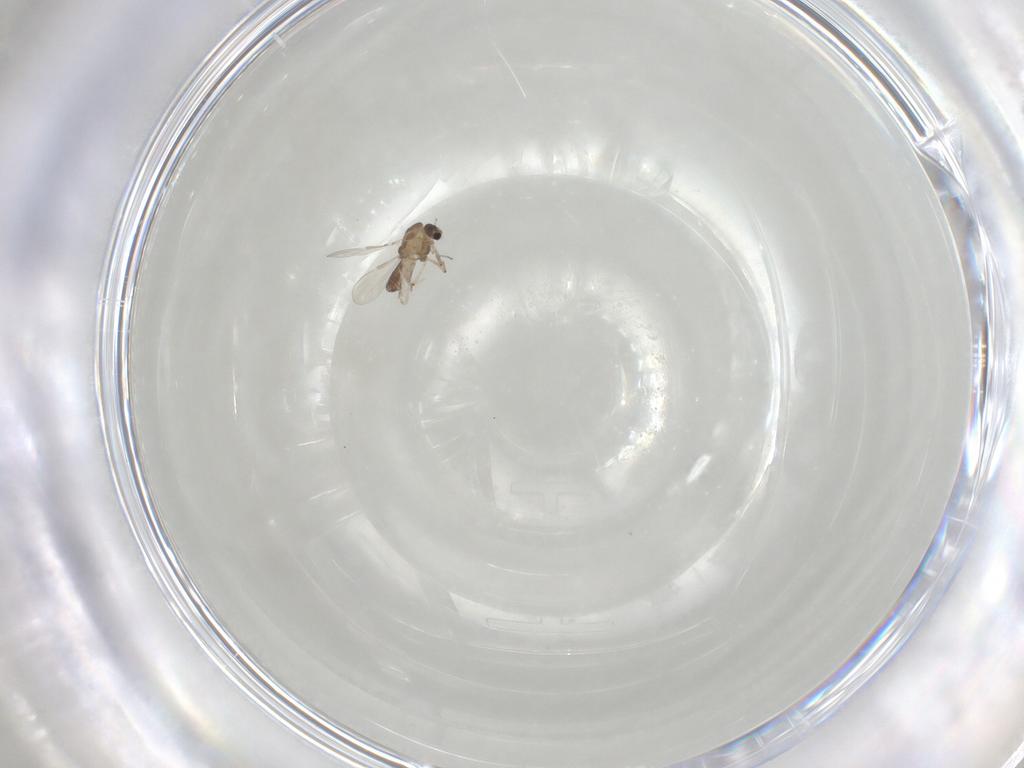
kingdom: Animalia
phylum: Arthropoda
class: Insecta
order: Diptera
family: Chironomidae
